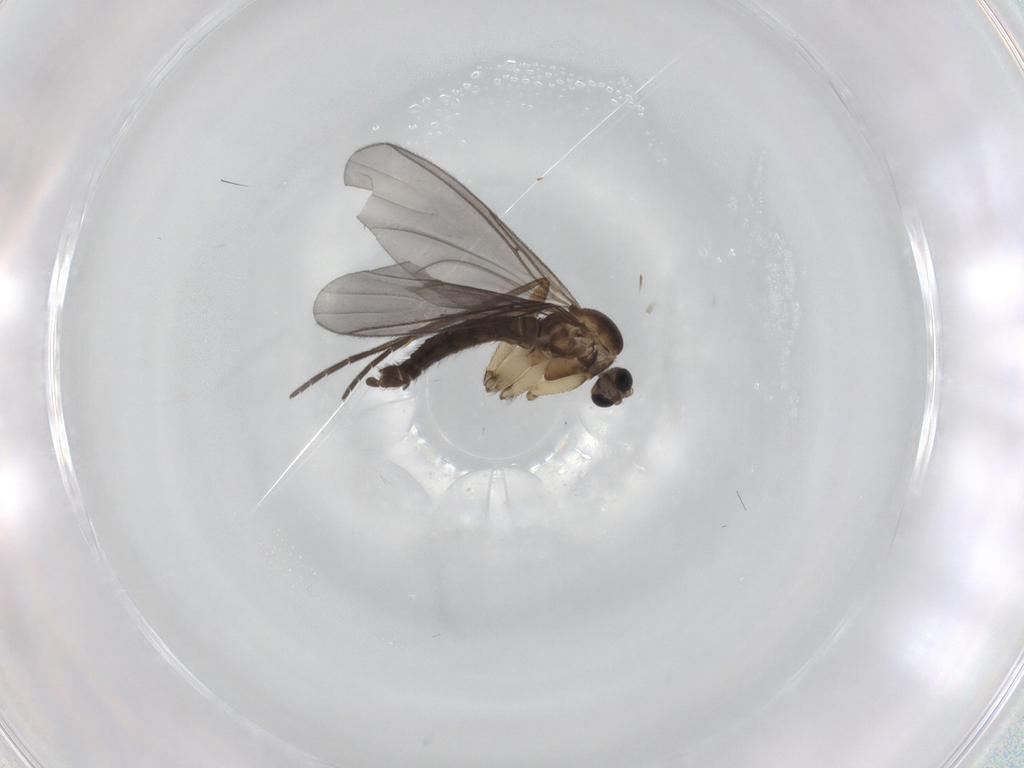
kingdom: Animalia
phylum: Arthropoda
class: Insecta
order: Diptera
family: Sciaridae
